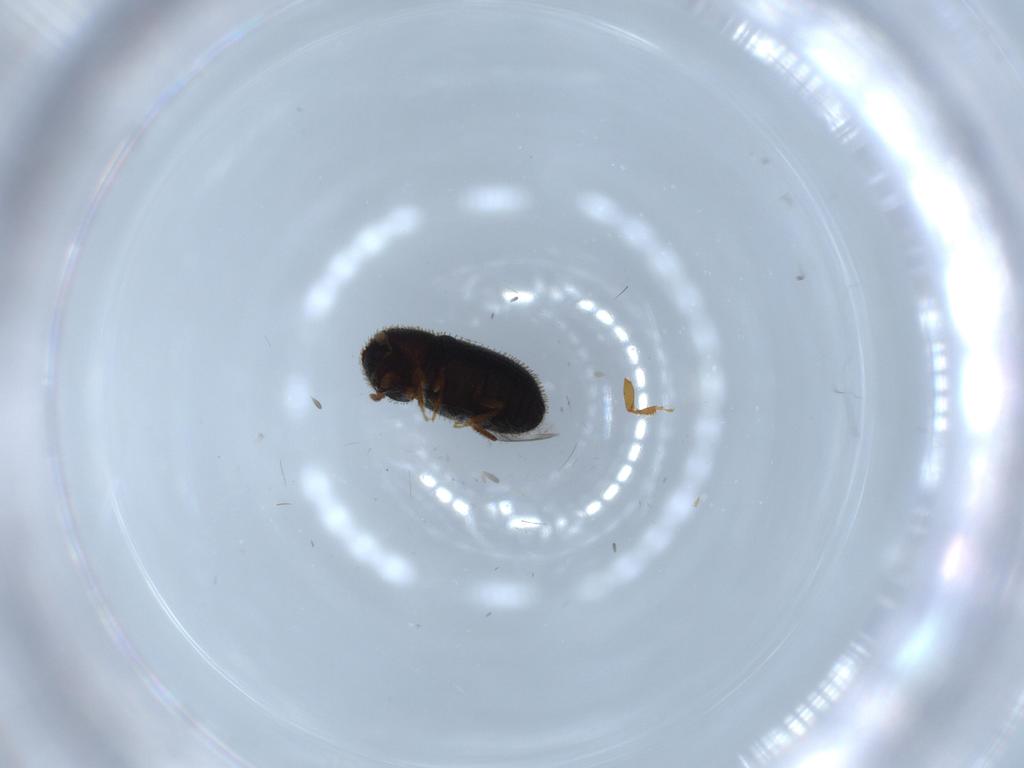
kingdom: Animalia
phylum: Arthropoda
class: Insecta
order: Coleoptera
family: Curculionidae
